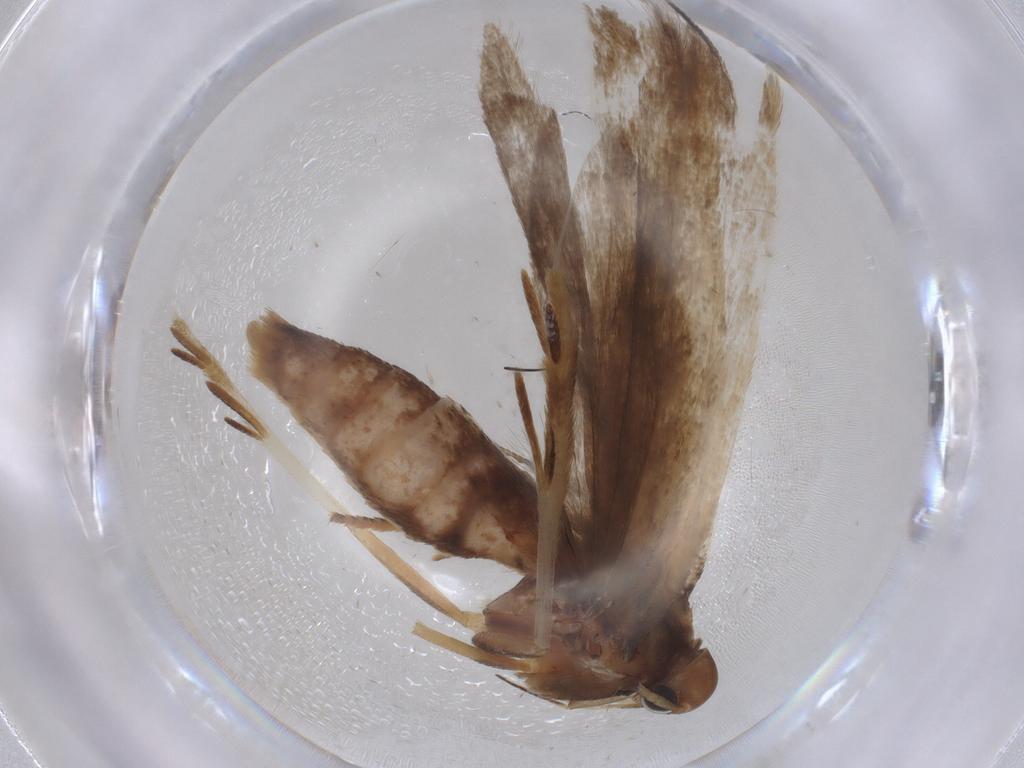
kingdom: Animalia
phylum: Arthropoda
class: Insecta
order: Lepidoptera
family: Gelechiidae
